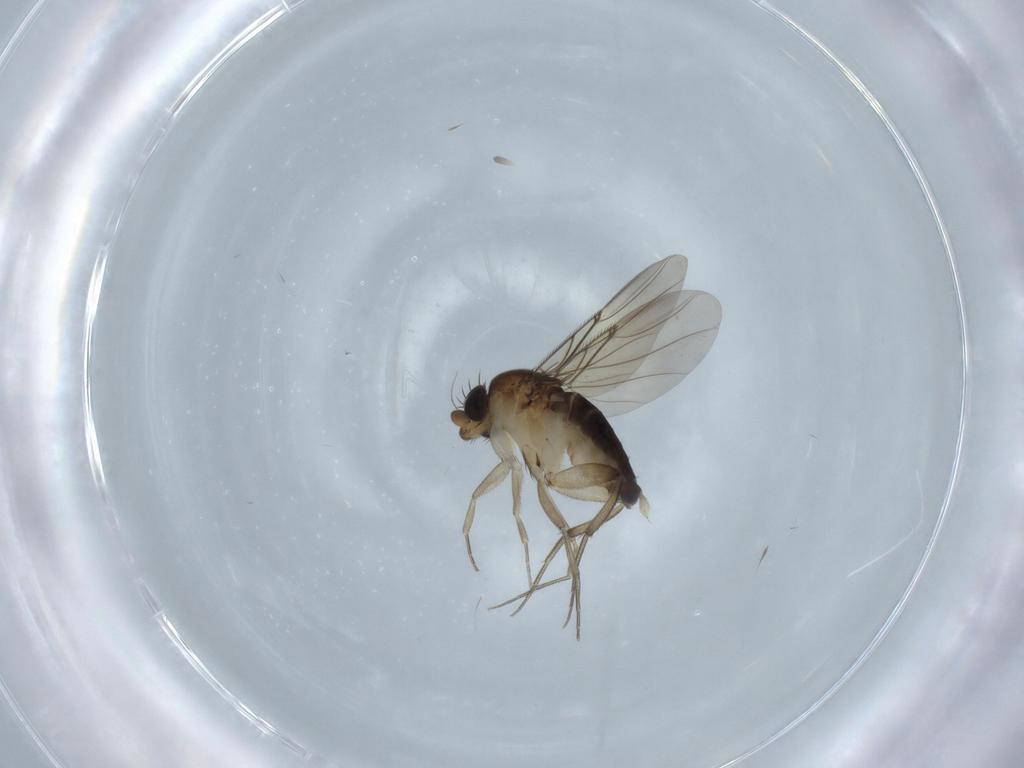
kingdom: Animalia
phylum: Arthropoda
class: Insecta
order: Diptera
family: Phoridae
